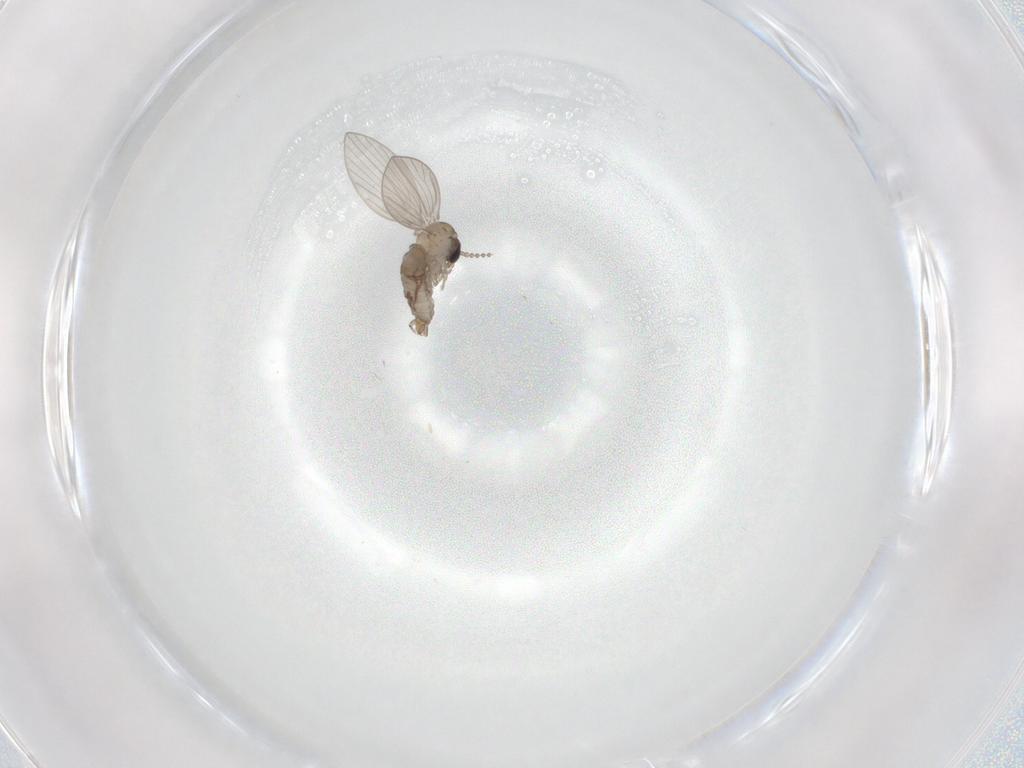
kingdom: Animalia
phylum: Arthropoda
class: Insecta
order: Diptera
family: Psychodidae
